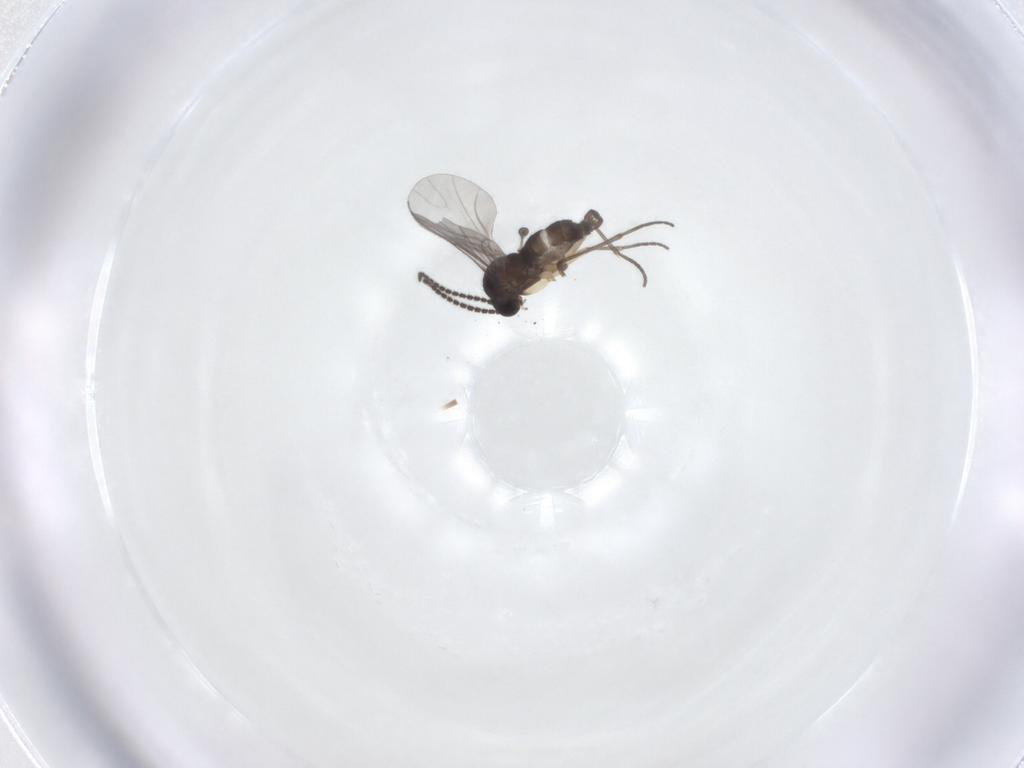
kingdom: Animalia
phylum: Arthropoda
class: Insecta
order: Diptera
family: Sciaridae
